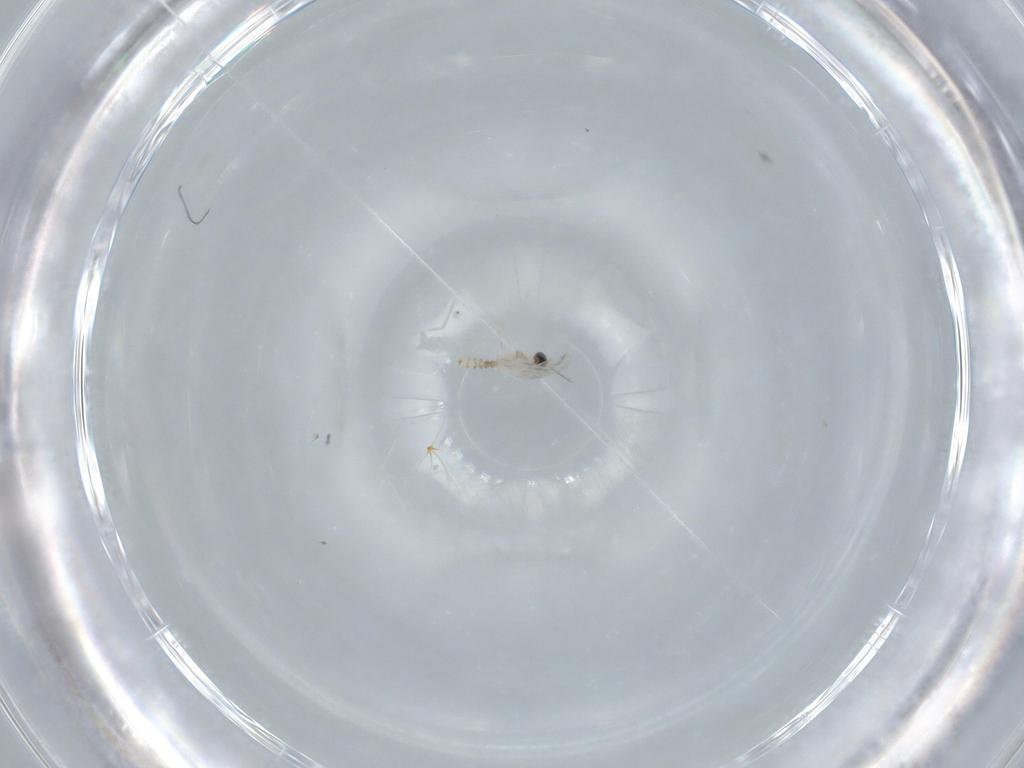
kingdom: Animalia
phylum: Arthropoda
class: Insecta
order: Diptera
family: Cecidomyiidae
